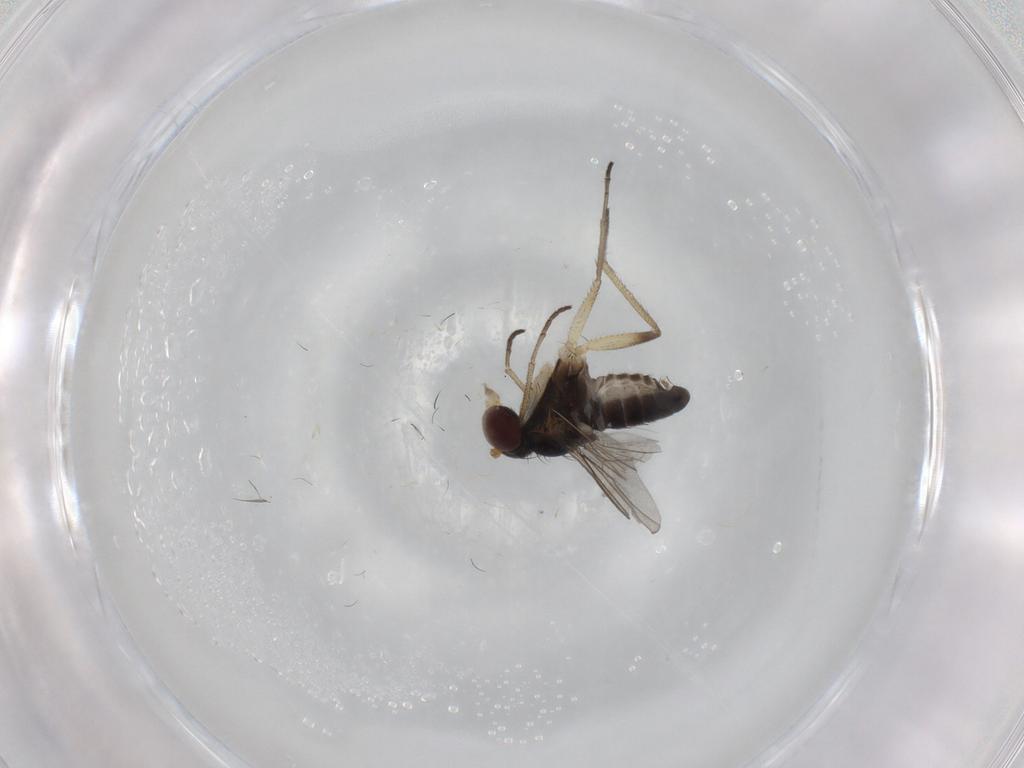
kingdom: Animalia
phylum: Arthropoda
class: Insecta
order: Diptera
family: Dolichopodidae
